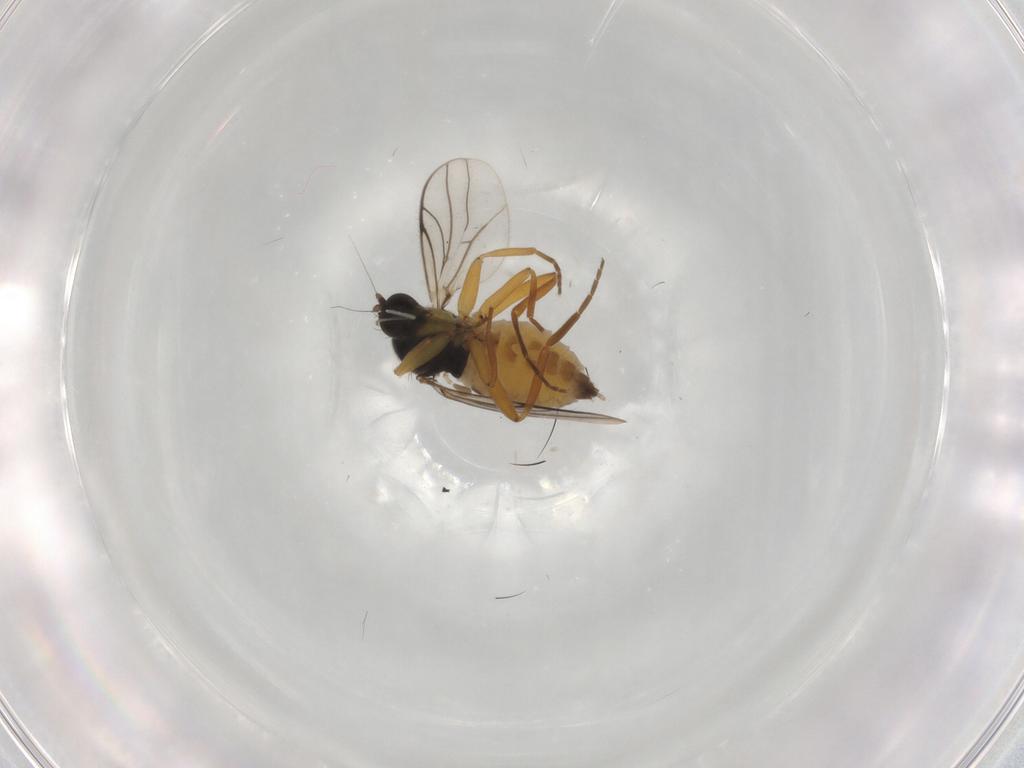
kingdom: Animalia
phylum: Arthropoda
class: Insecta
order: Diptera
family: Hybotidae
